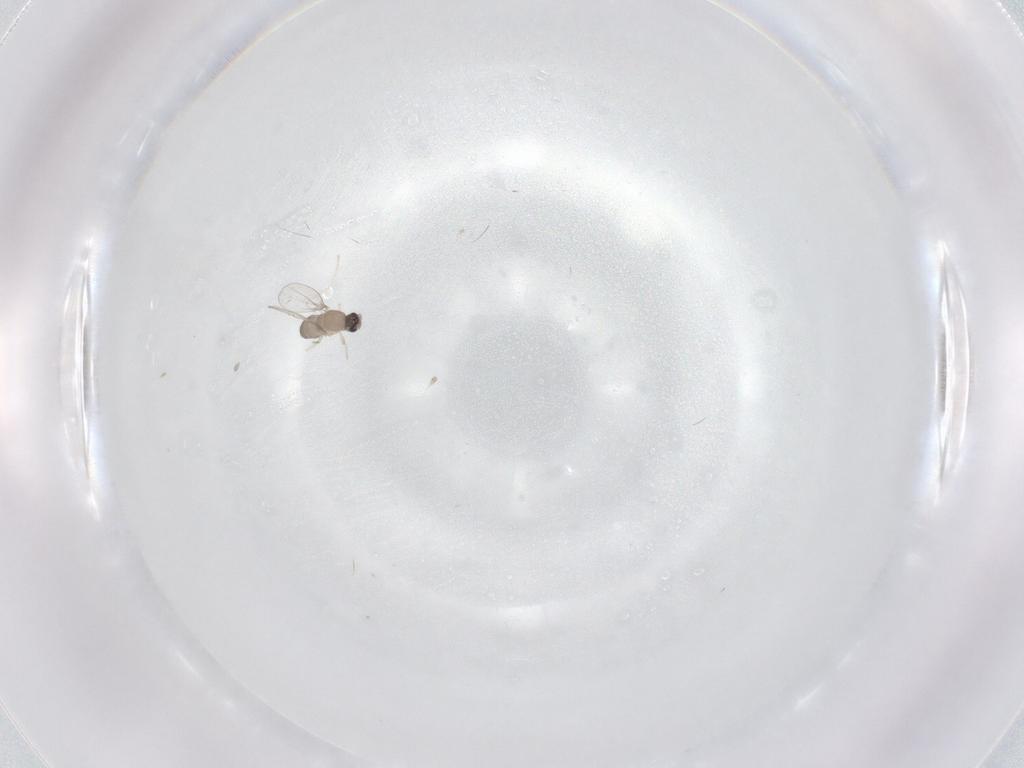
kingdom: Animalia
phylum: Arthropoda
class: Insecta
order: Diptera
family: Cecidomyiidae
